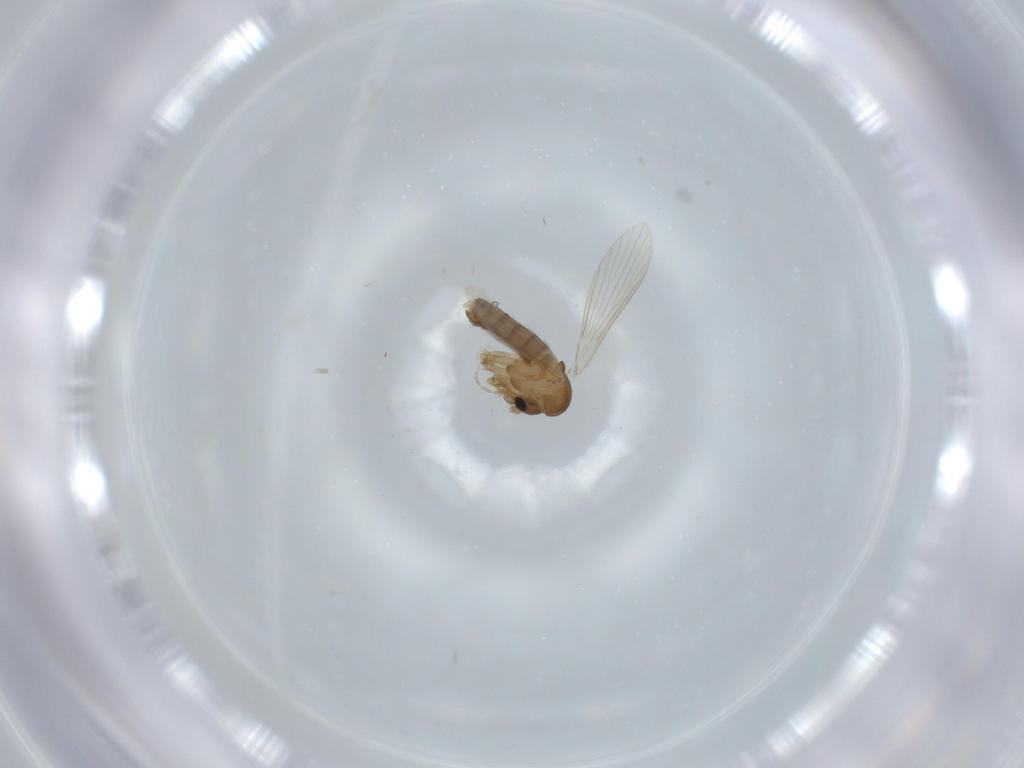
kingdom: Animalia
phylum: Arthropoda
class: Insecta
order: Diptera
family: Psychodidae
